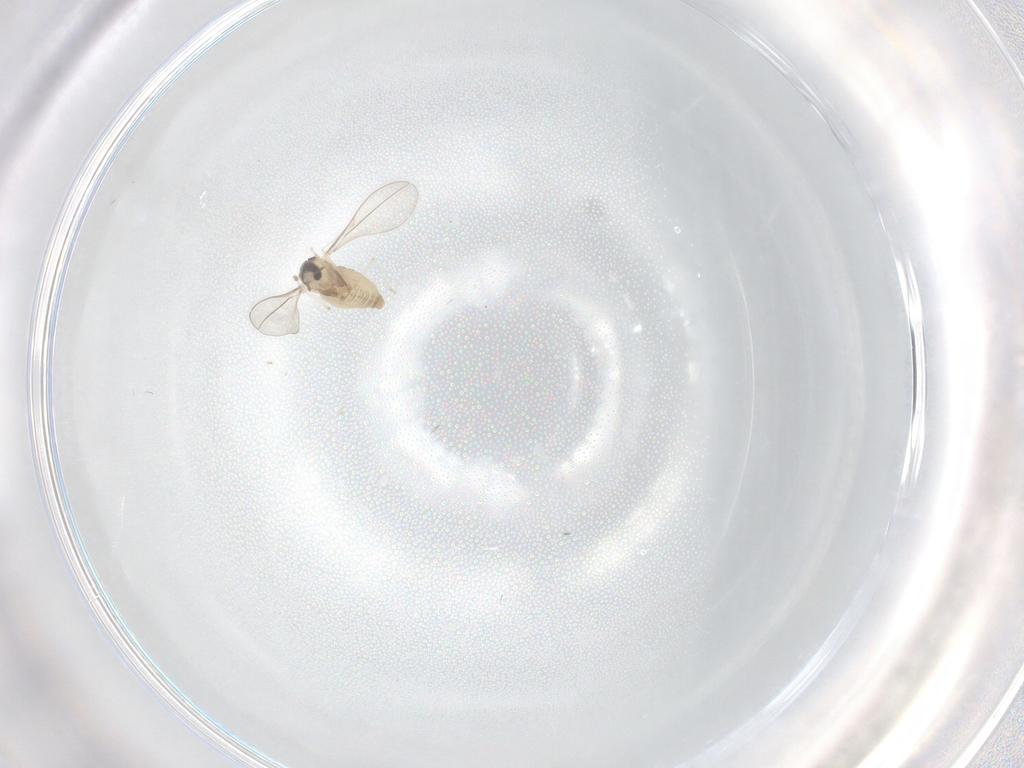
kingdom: Animalia
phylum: Arthropoda
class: Insecta
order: Diptera
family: Cecidomyiidae
